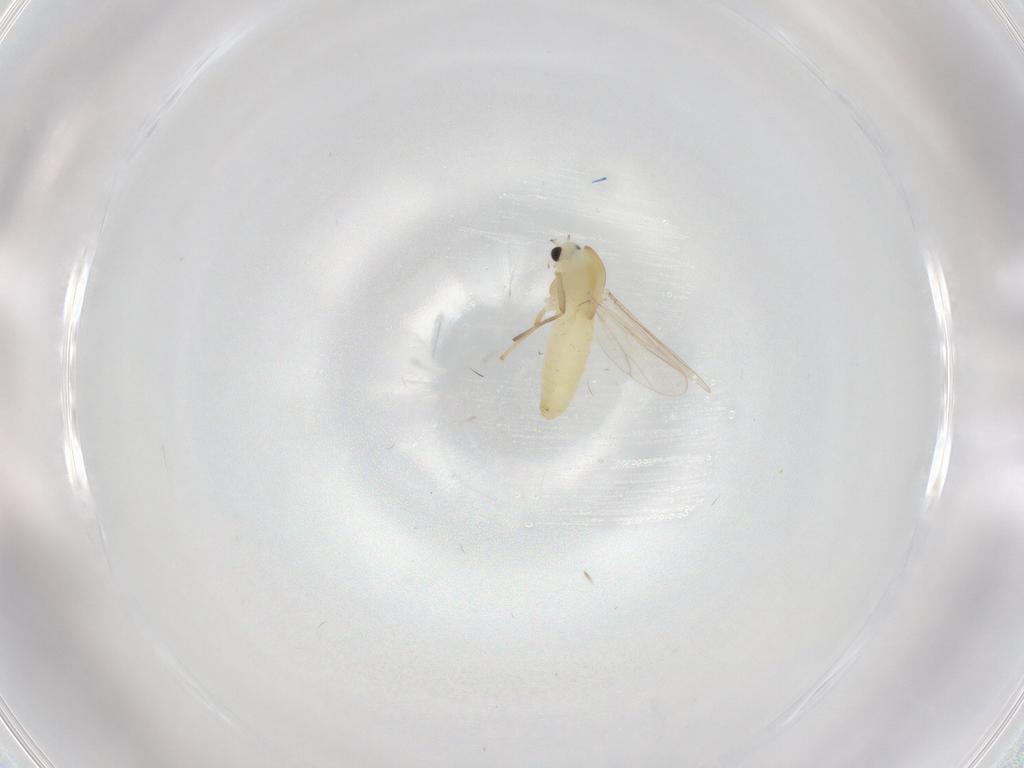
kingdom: Animalia
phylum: Arthropoda
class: Insecta
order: Diptera
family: Chironomidae
